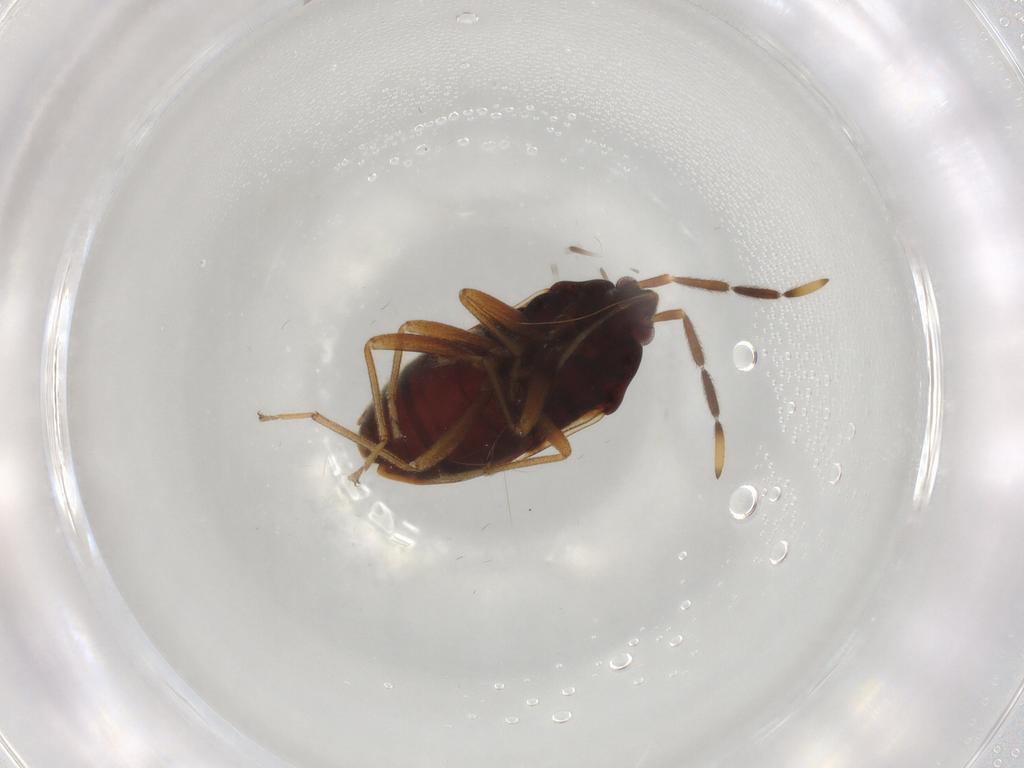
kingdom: Animalia
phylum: Arthropoda
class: Insecta
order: Hemiptera
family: Rhyparochromidae
